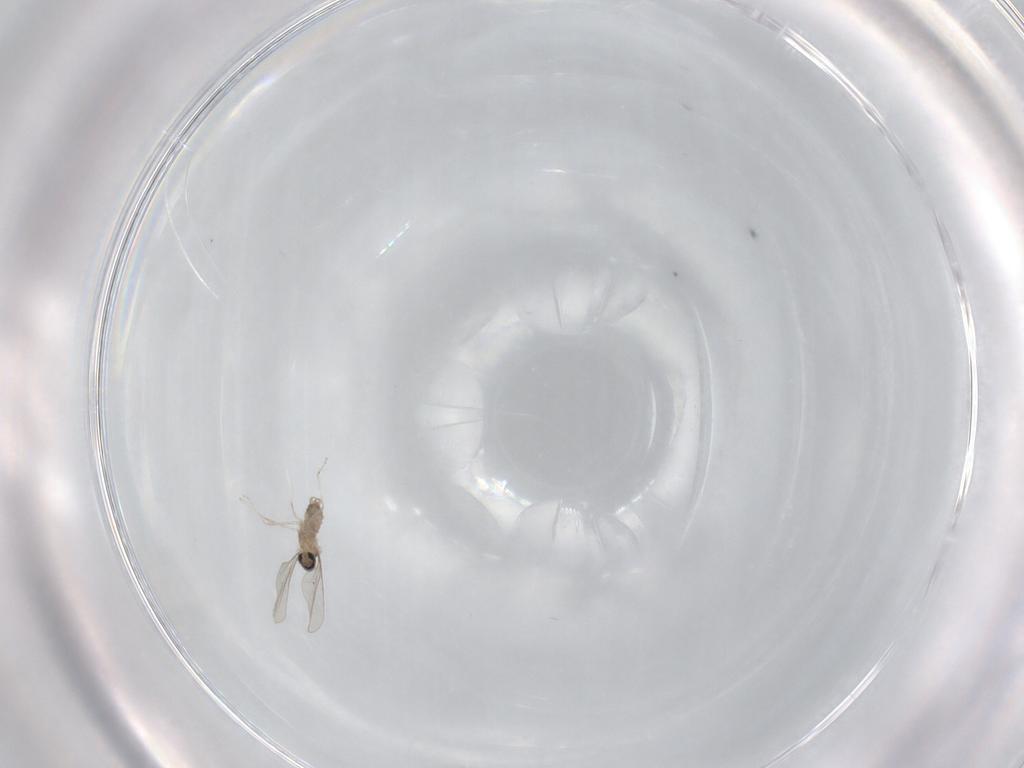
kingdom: Animalia
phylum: Arthropoda
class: Insecta
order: Diptera
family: Cecidomyiidae
